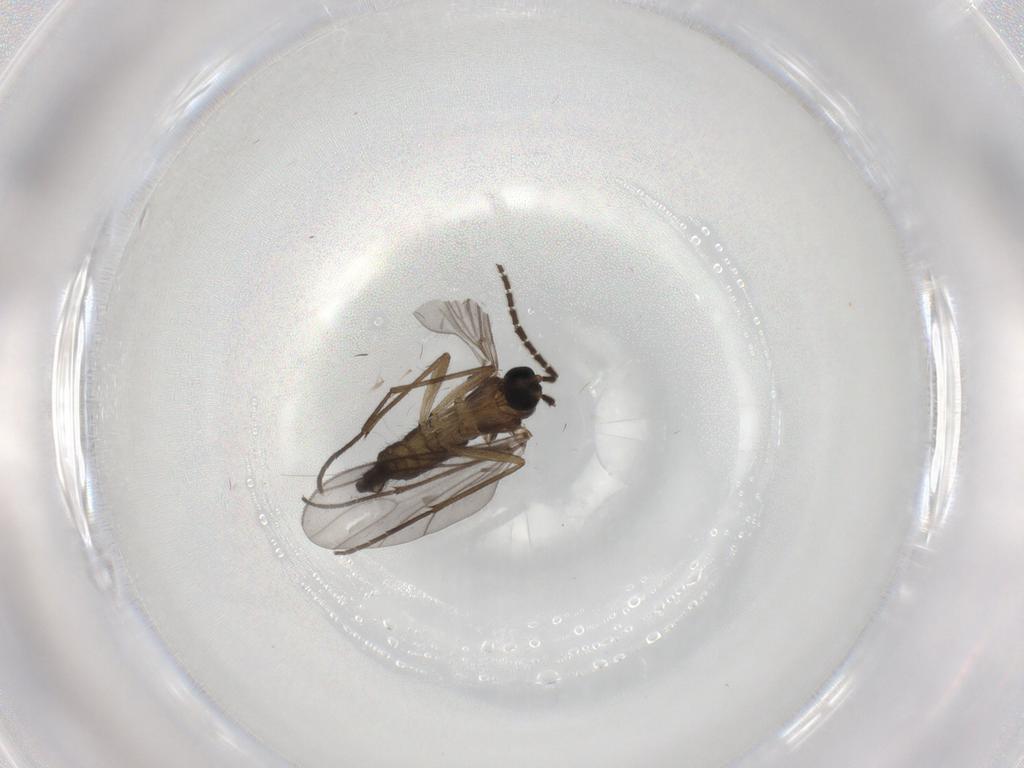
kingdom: Animalia
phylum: Arthropoda
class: Insecta
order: Diptera
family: Sciaridae
